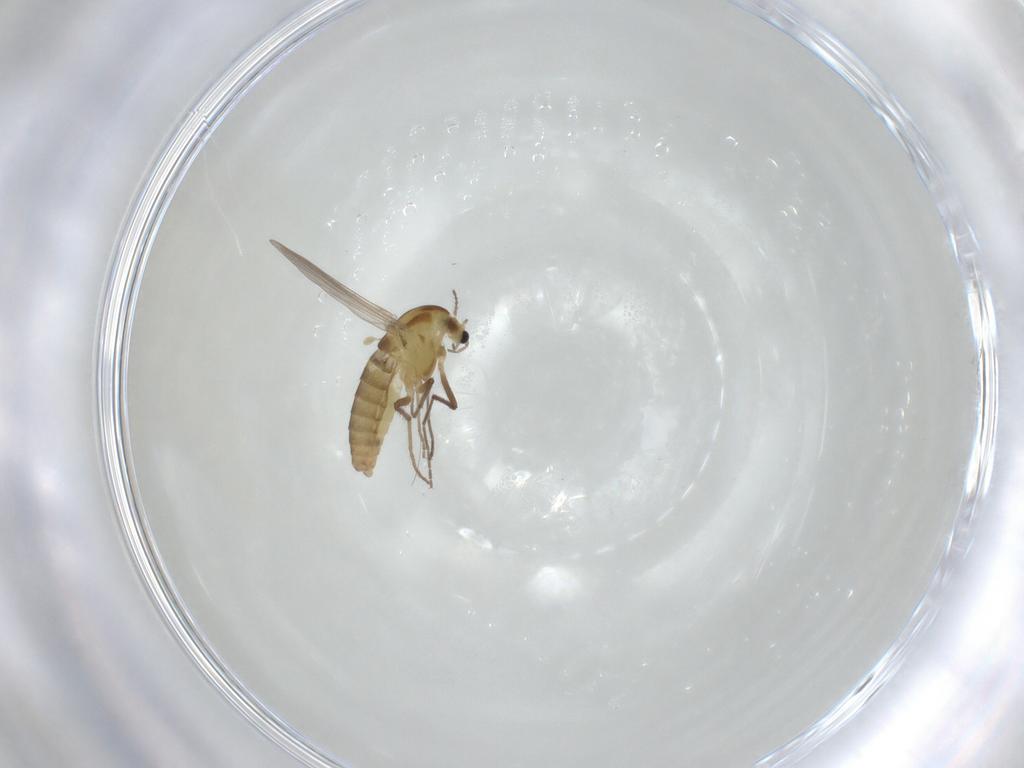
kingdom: Animalia
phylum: Arthropoda
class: Insecta
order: Diptera
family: Chironomidae
